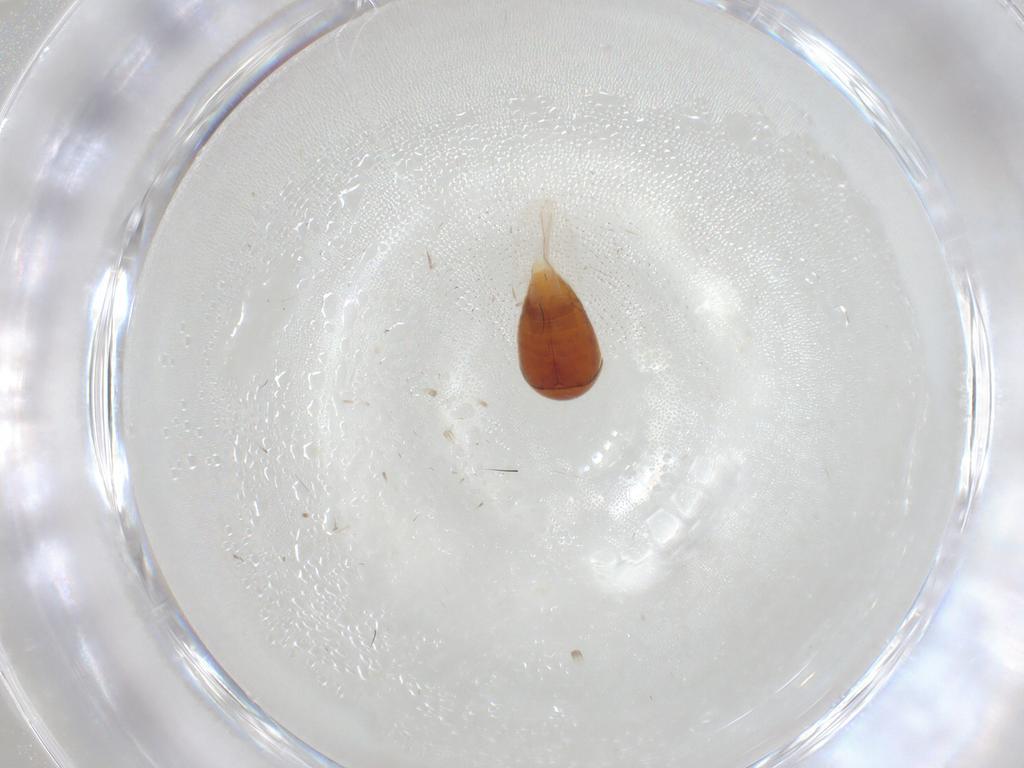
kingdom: Animalia
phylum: Arthropoda
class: Insecta
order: Coleoptera
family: Corylophidae
